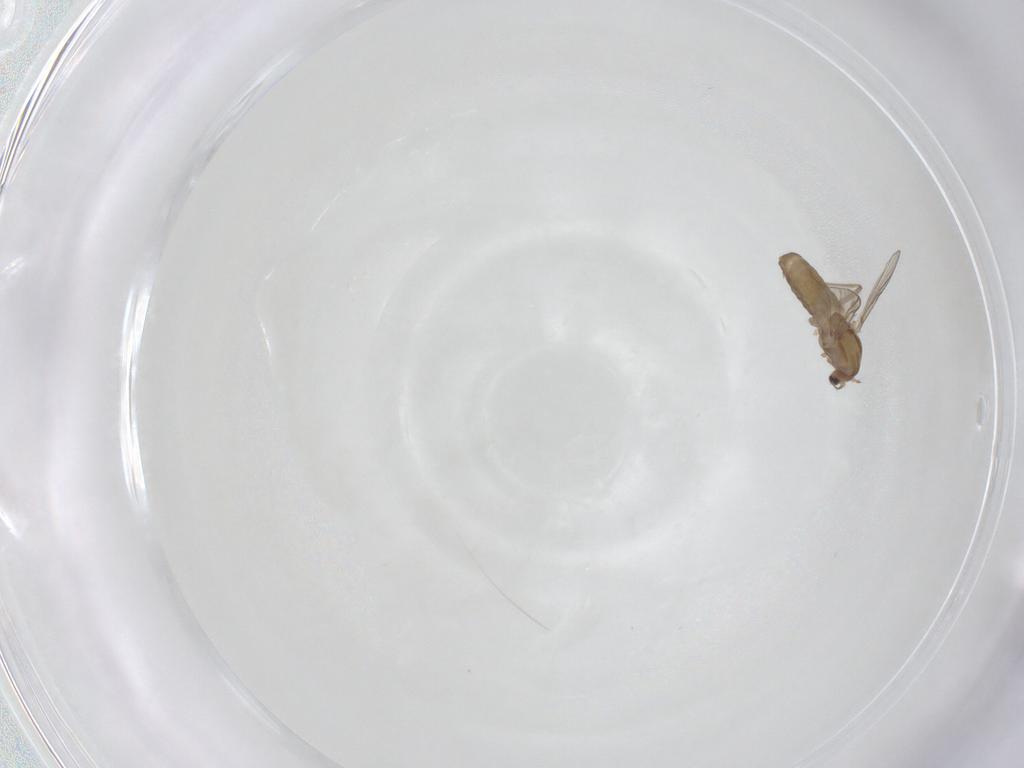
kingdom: Animalia
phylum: Arthropoda
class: Insecta
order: Diptera
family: Chironomidae
